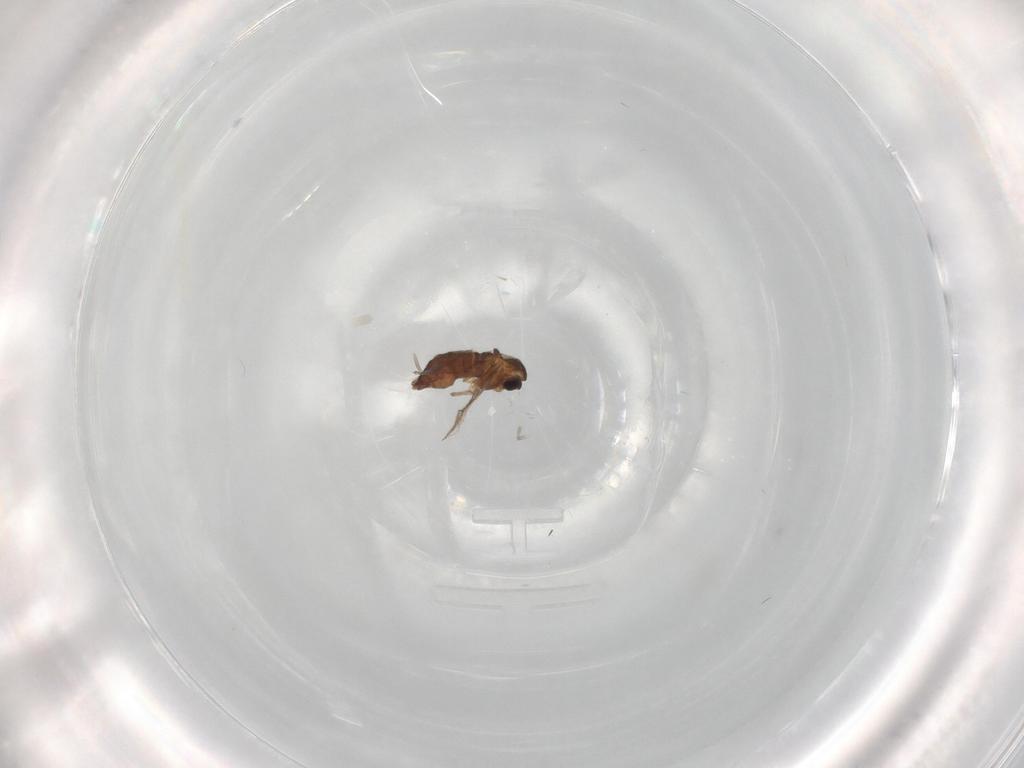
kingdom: Animalia
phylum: Arthropoda
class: Insecta
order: Diptera
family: Chironomidae
